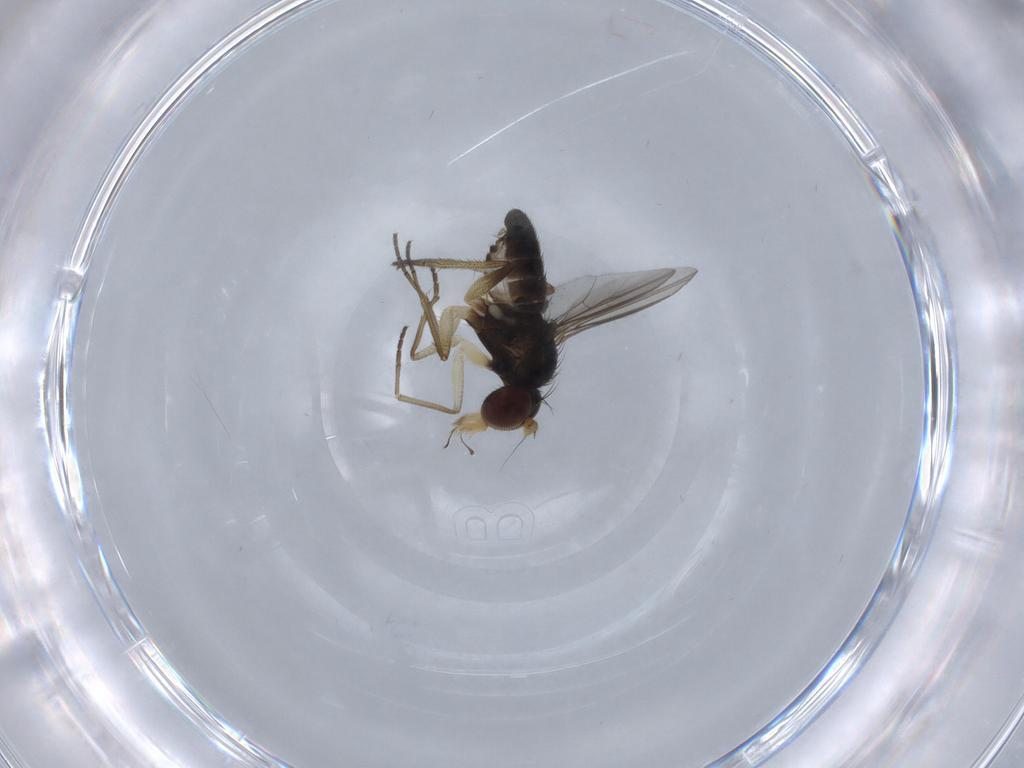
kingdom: Animalia
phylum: Arthropoda
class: Insecta
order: Diptera
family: Dolichopodidae
